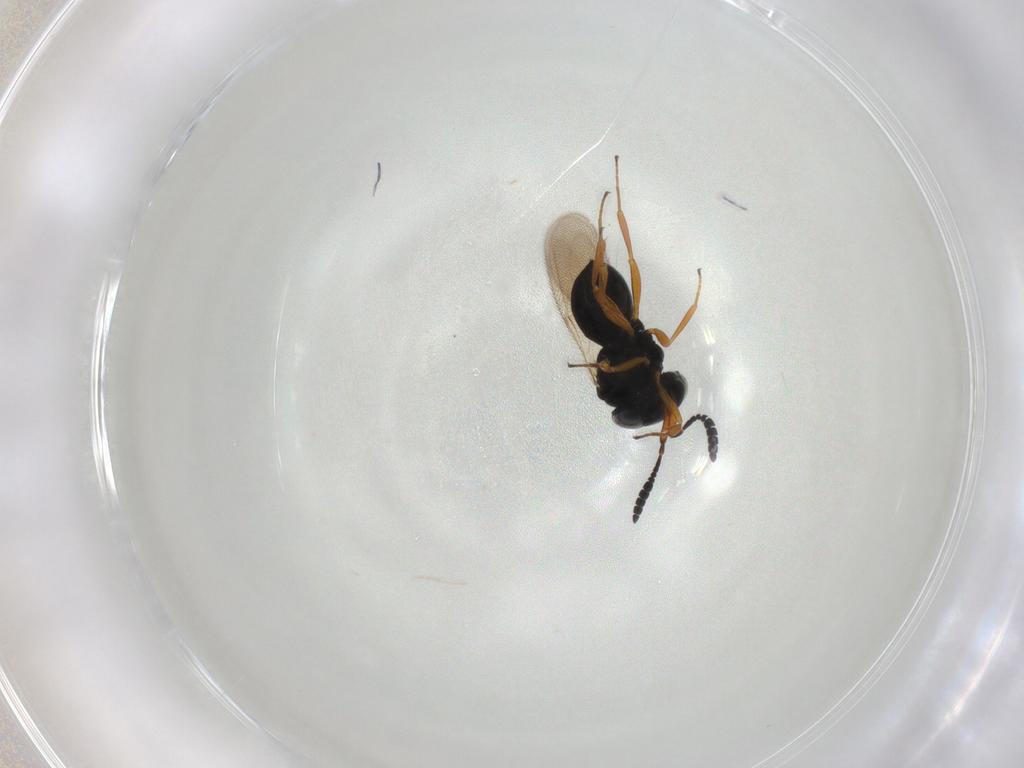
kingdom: Animalia
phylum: Arthropoda
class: Insecta
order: Hymenoptera
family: Scelionidae
